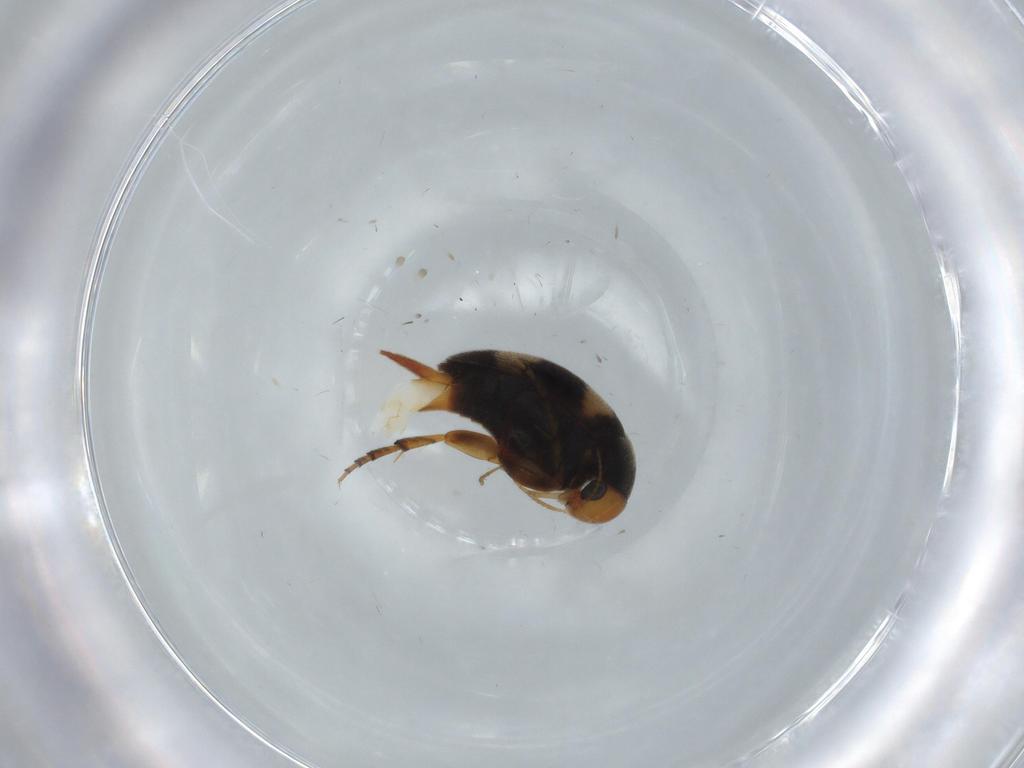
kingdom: Animalia
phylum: Arthropoda
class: Insecta
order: Coleoptera
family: Mordellidae
